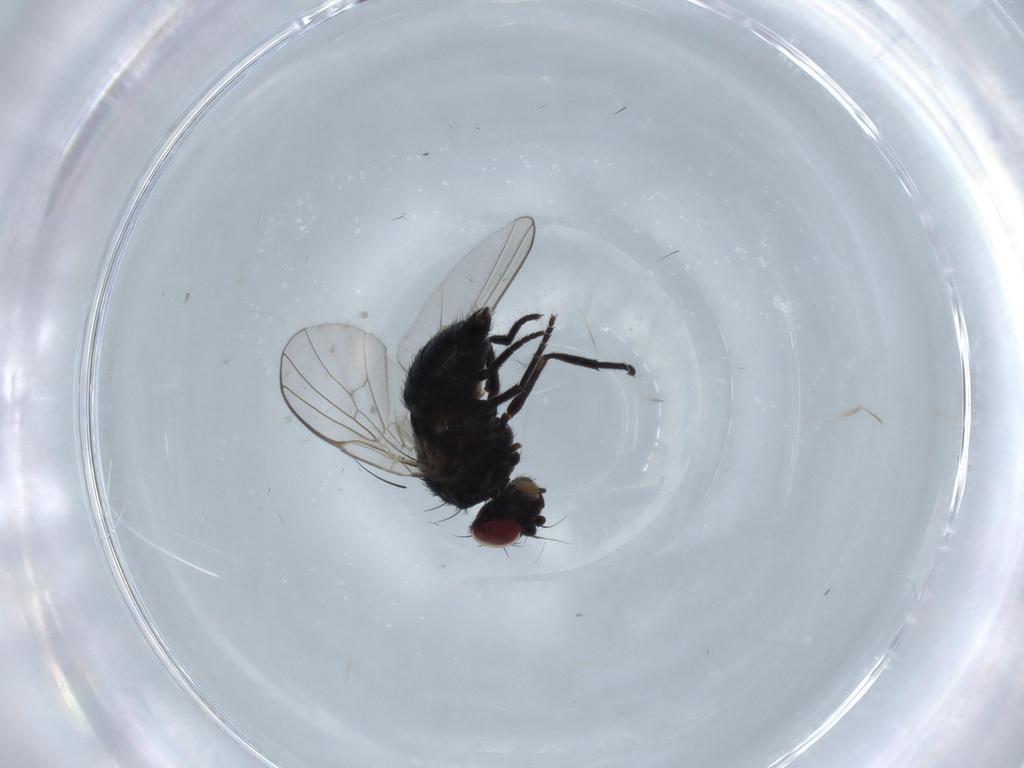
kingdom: Animalia
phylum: Arthropoda
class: Insecta
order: Diptera
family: Agromyzidae
